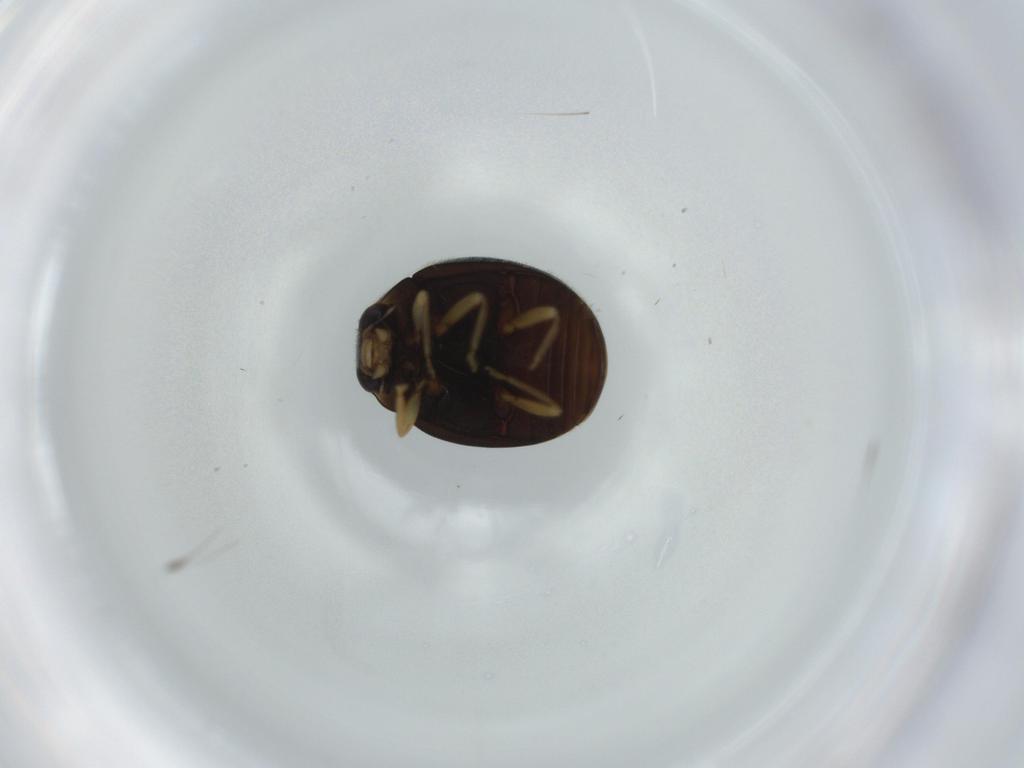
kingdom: Animalia
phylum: Arthropoda
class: Insecta
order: Coleoptera
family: Coccinellidae
